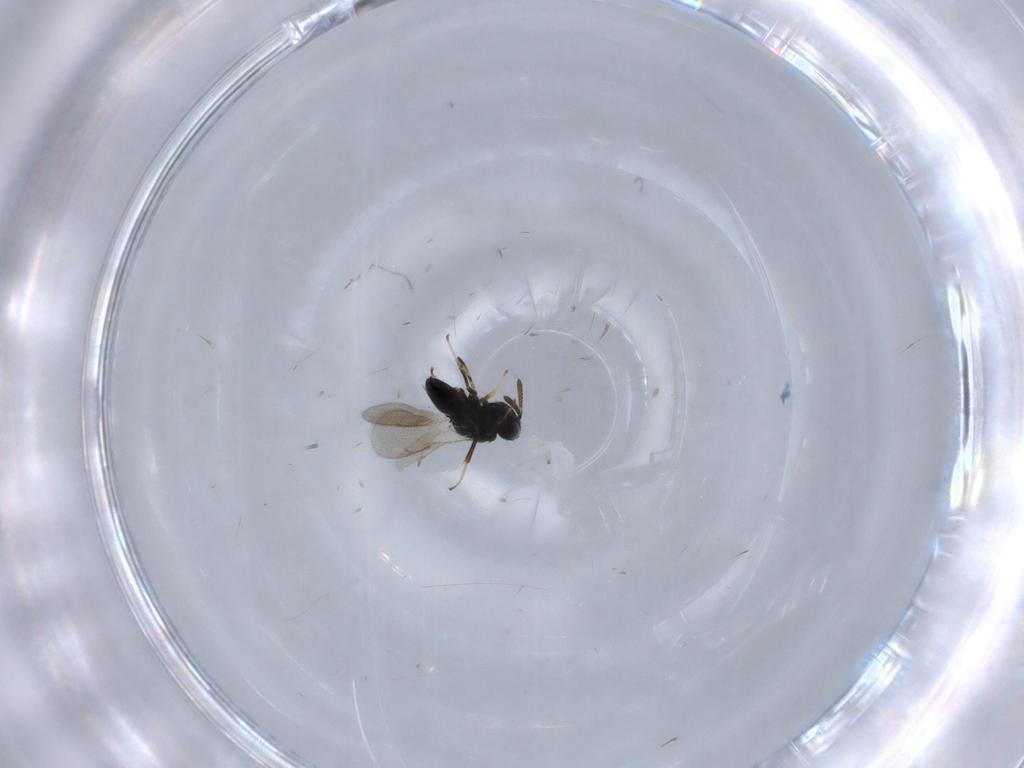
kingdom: Animalia
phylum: Arthropoda
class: Insecta
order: Hymenoptera
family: Pteromalidae
